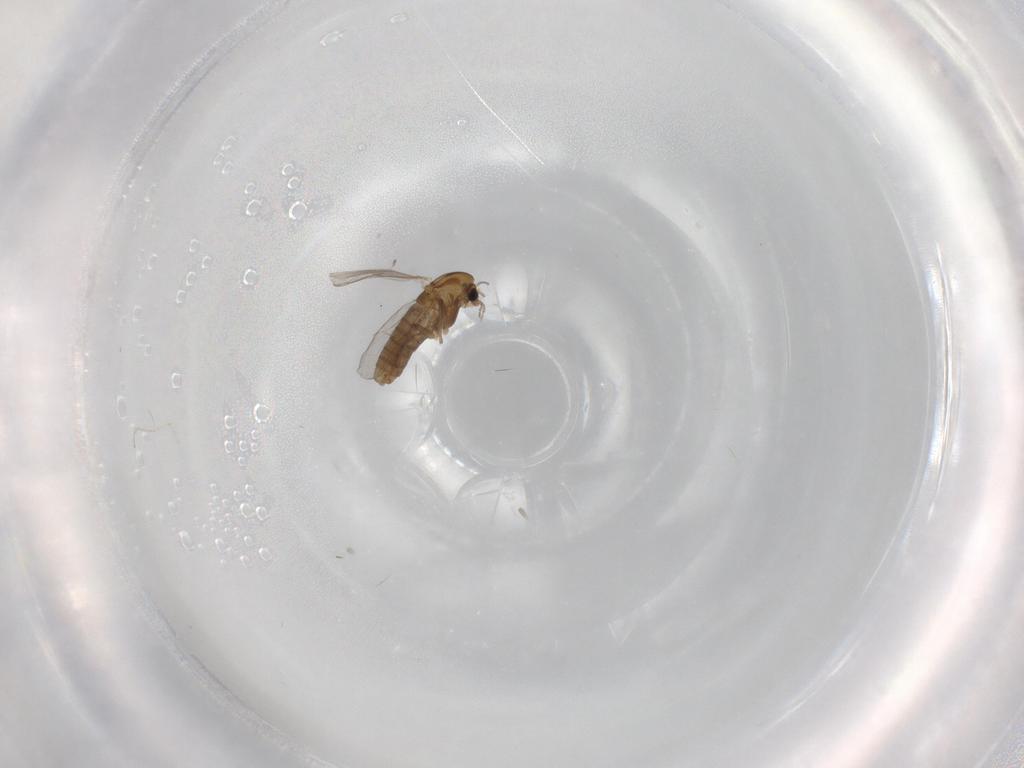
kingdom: Animalia
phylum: Arthropoda
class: Insecta
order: Diptera
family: Chironomidae
